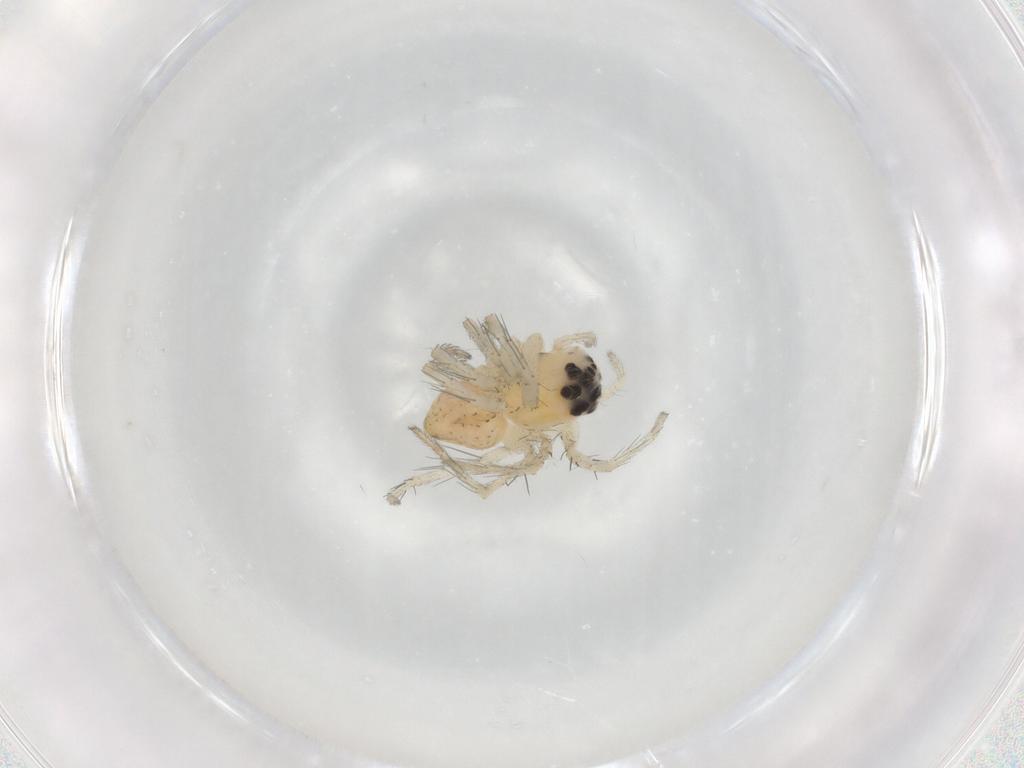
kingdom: Animalia
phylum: Arthropoda
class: Arachnida
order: Araneae
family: Oxyopidae
